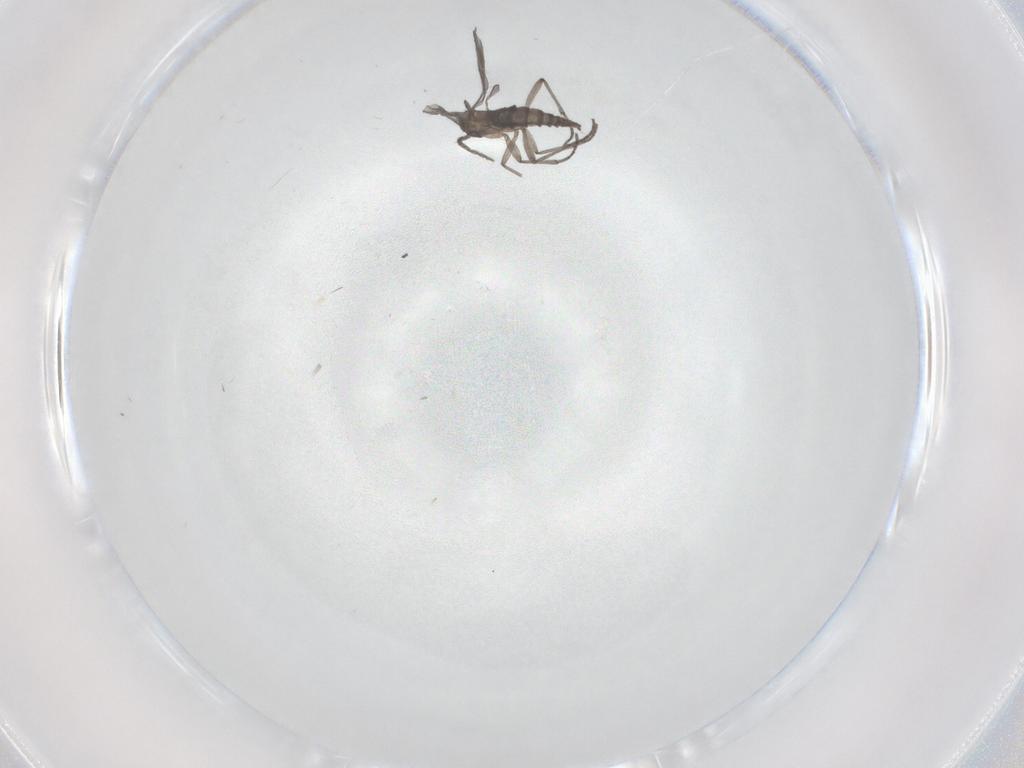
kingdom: Animalia
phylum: Arthropoda
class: Insecta
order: Diptera
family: Sciaridae
